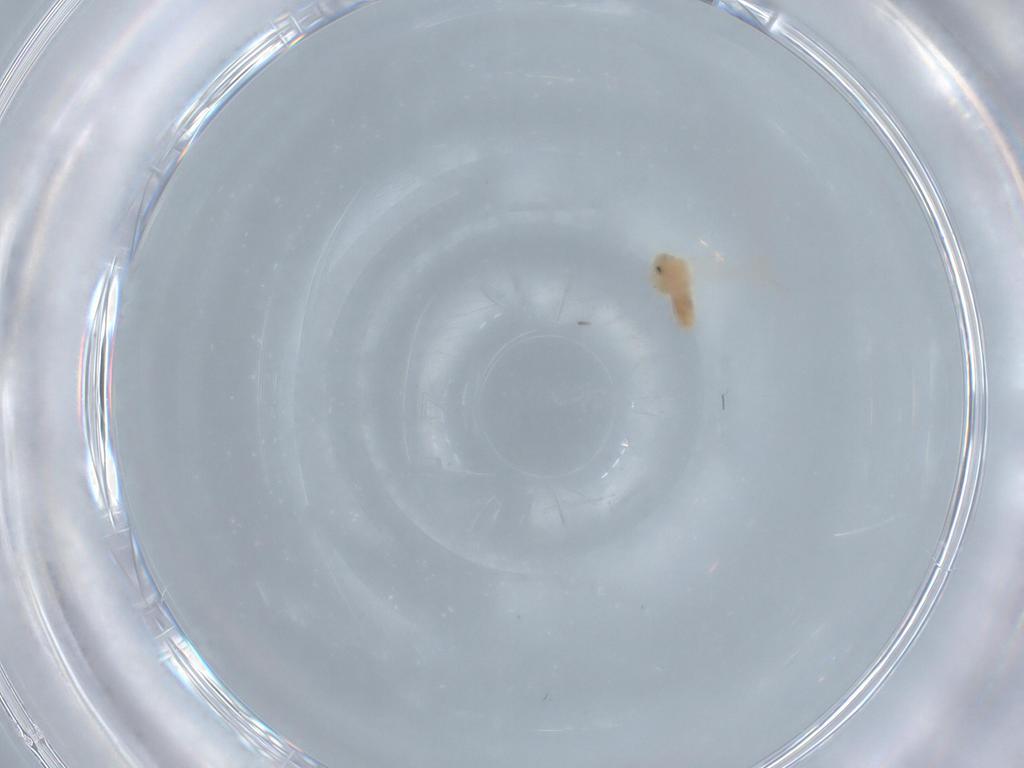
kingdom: Animalia
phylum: Arthropoda
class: Insecta
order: Hemiptera
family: Aleyrodidae
